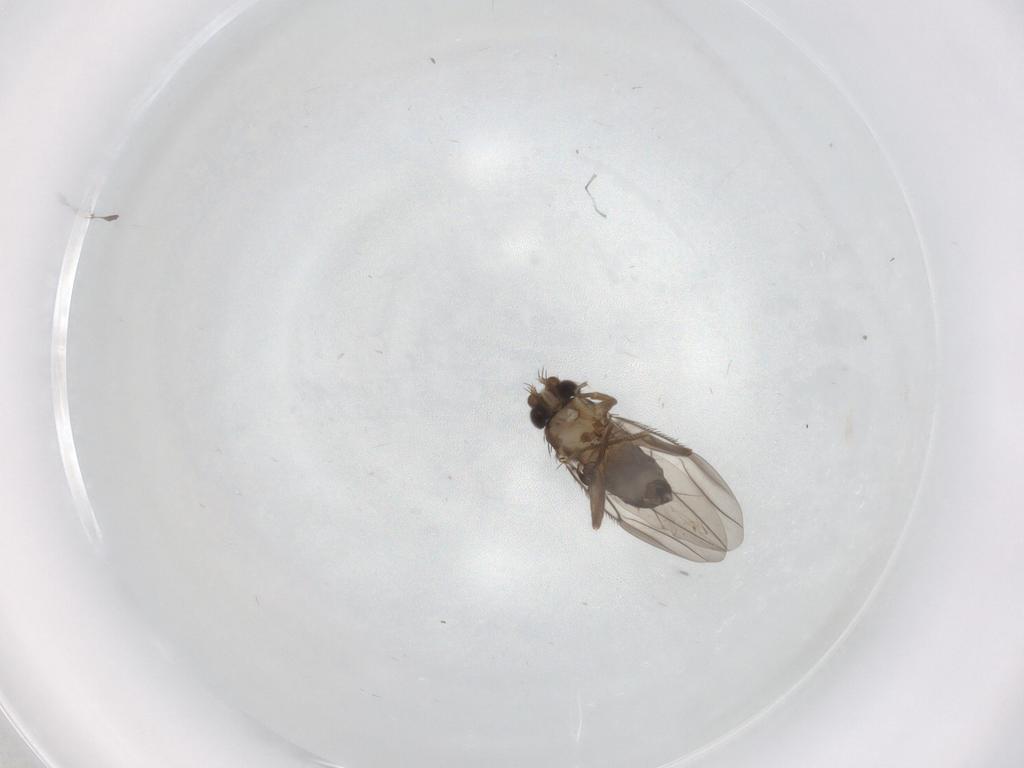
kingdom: Animalia
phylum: Arthropoda
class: Insecta
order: Diptera
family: Phoridae
